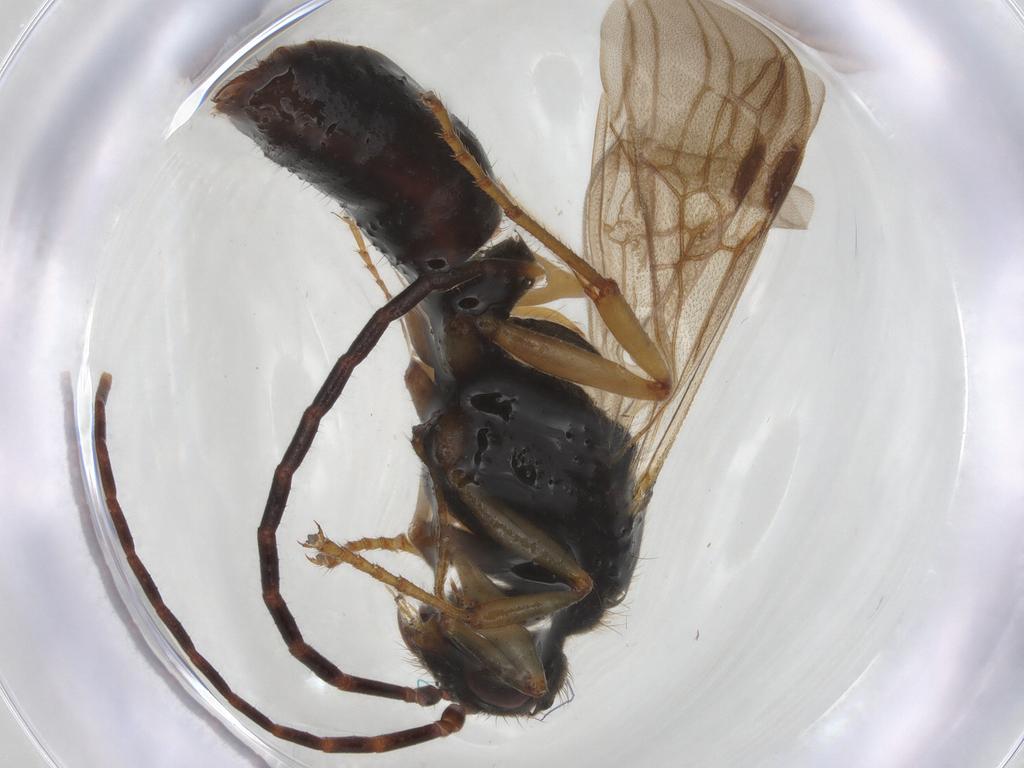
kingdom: Animalia
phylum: Arthropoda
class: Insecta
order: Hymenoptera
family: Formicidae
